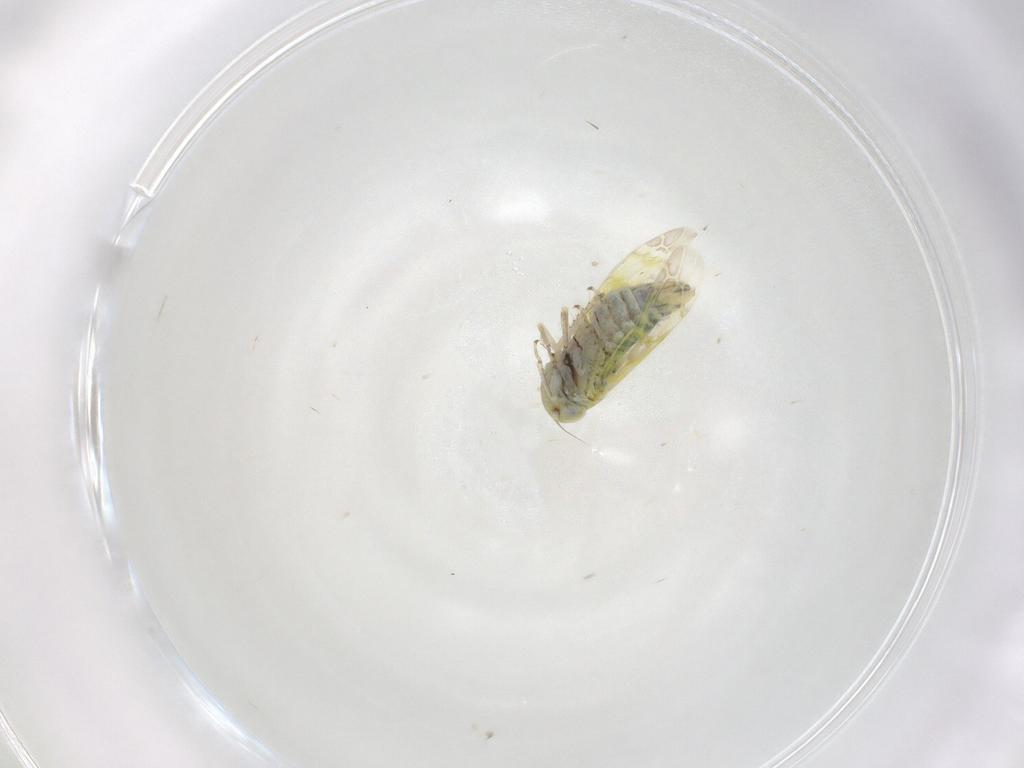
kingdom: Animalia
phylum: Arthropoda
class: Insecta
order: Hemiptera
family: Cicadellidae
